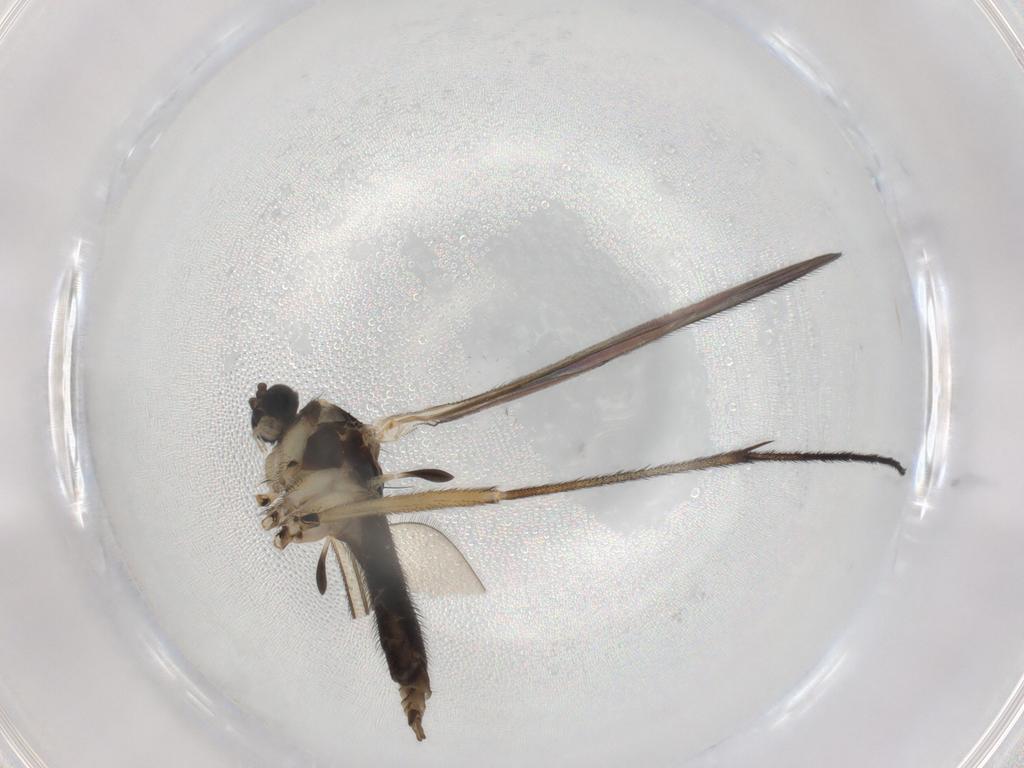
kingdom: Animalia
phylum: Arthropoda
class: Insecta
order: Diptera
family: Sciaridae
